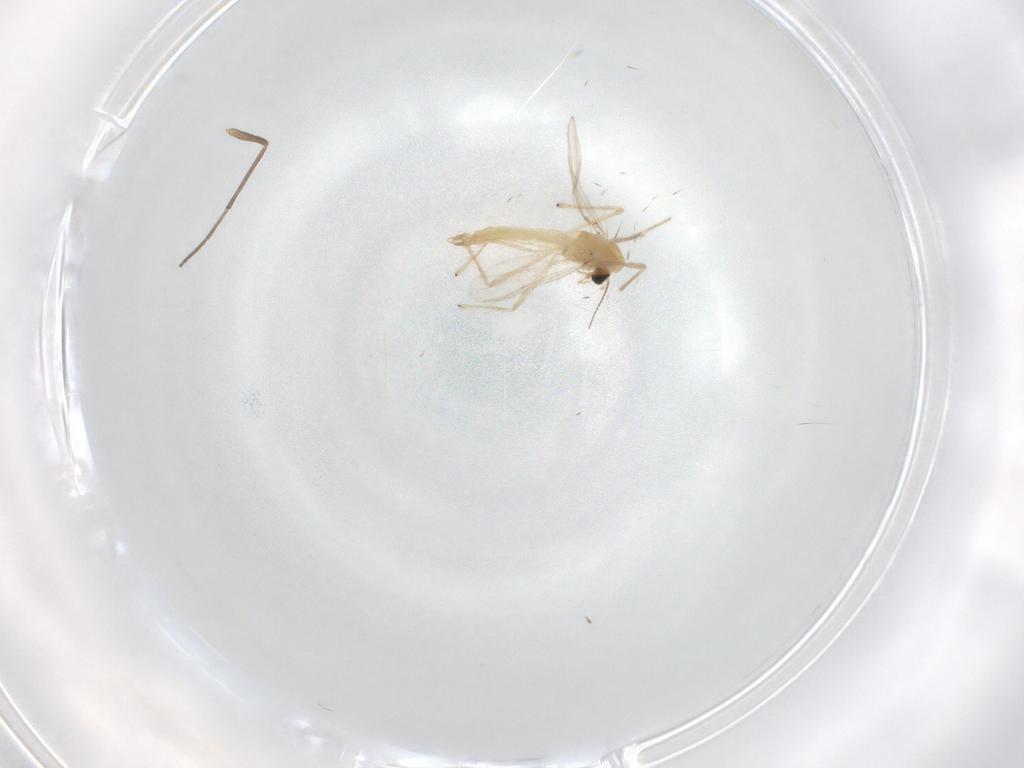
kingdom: Animalia
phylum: Arthropoda
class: Insecta
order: Diptera
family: Chironomidae
